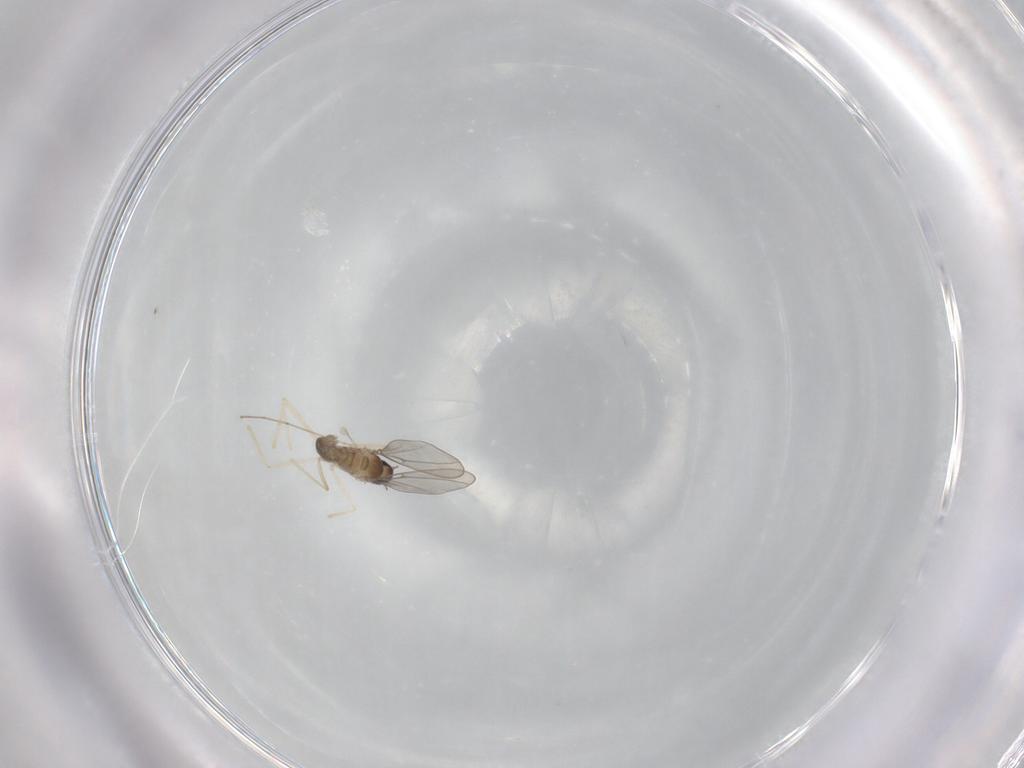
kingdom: Animalia
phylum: Arthropoda
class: Insecta
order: Diptera
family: Cecidomyiidae
